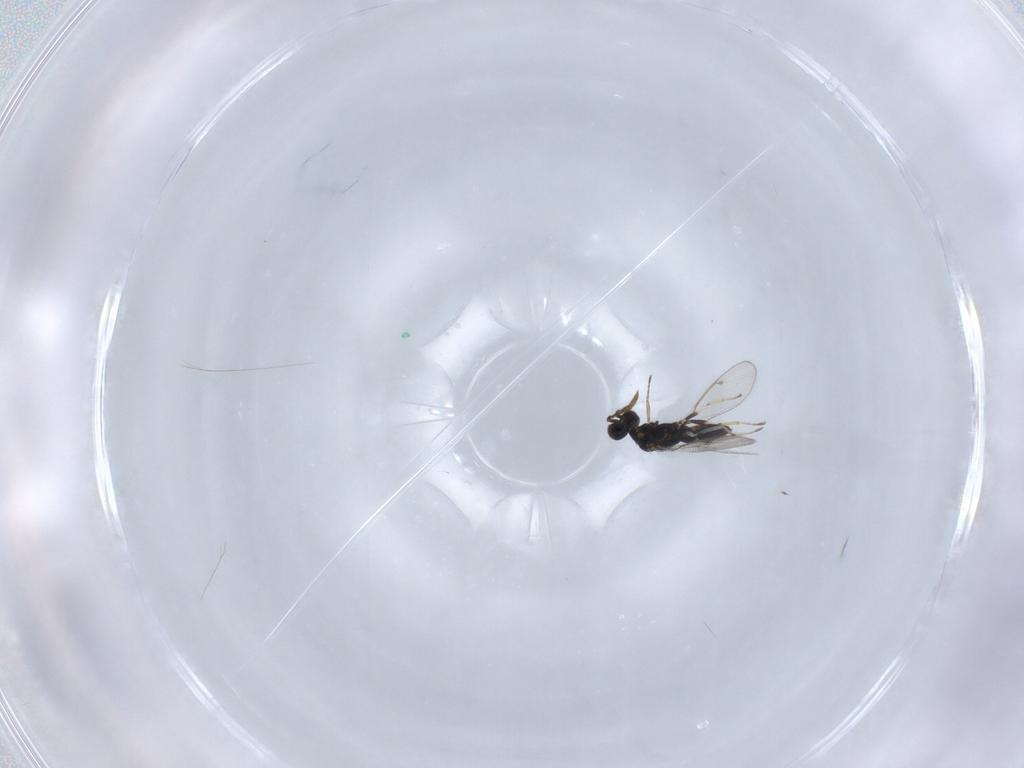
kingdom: Animalia
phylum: Arthropoda
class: Insecta
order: Hymenoptera
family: Eulophidae
